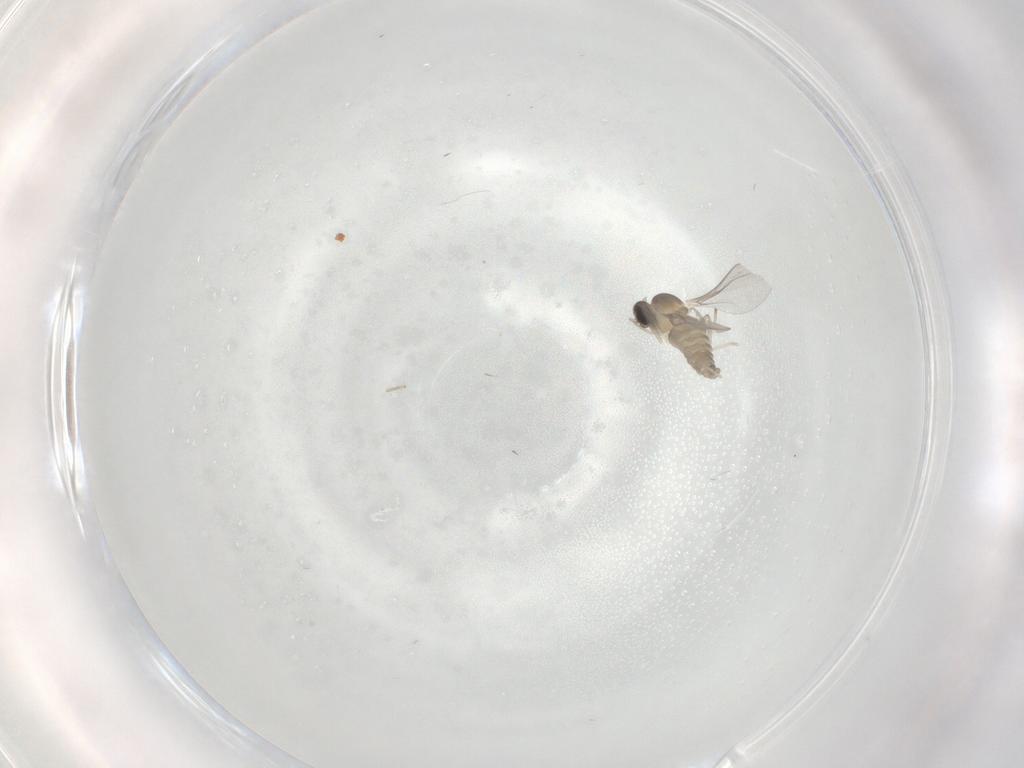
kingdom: Animalia
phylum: Arthropoda
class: Insecta
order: Diptera
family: Cecidomyiidae
